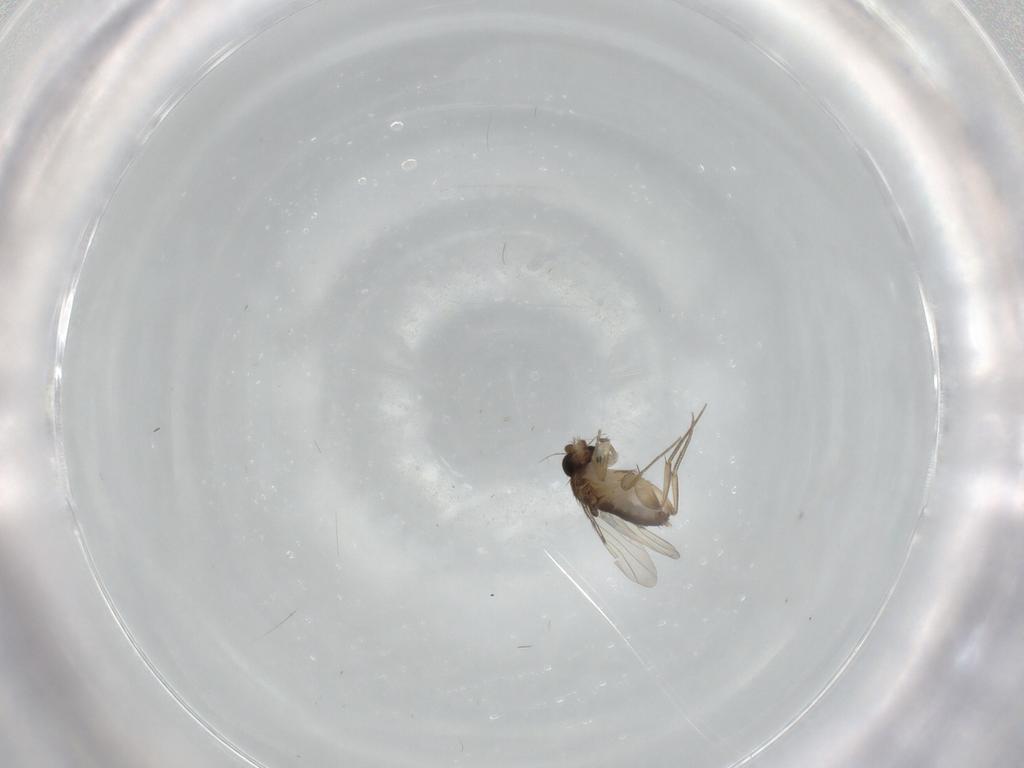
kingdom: Animalia
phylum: Arthropoda
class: Insecta
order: Diptera
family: Phoridae
